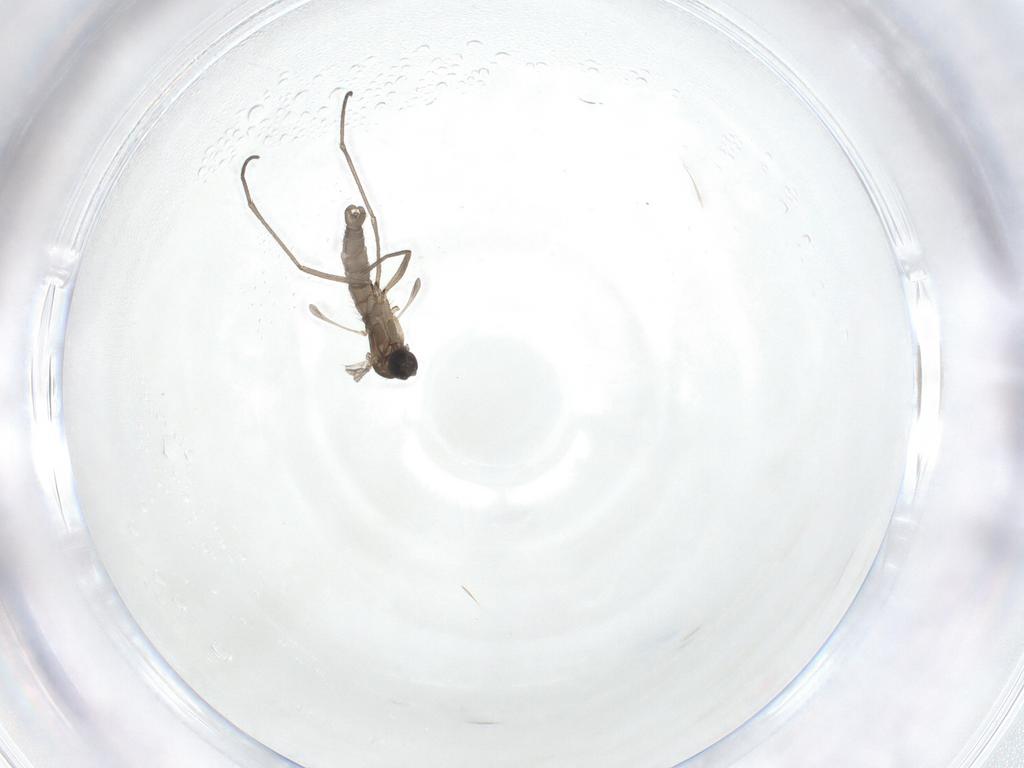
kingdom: Animalia
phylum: Arthropoda
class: Insecta
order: Diptera
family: Sciaridae
